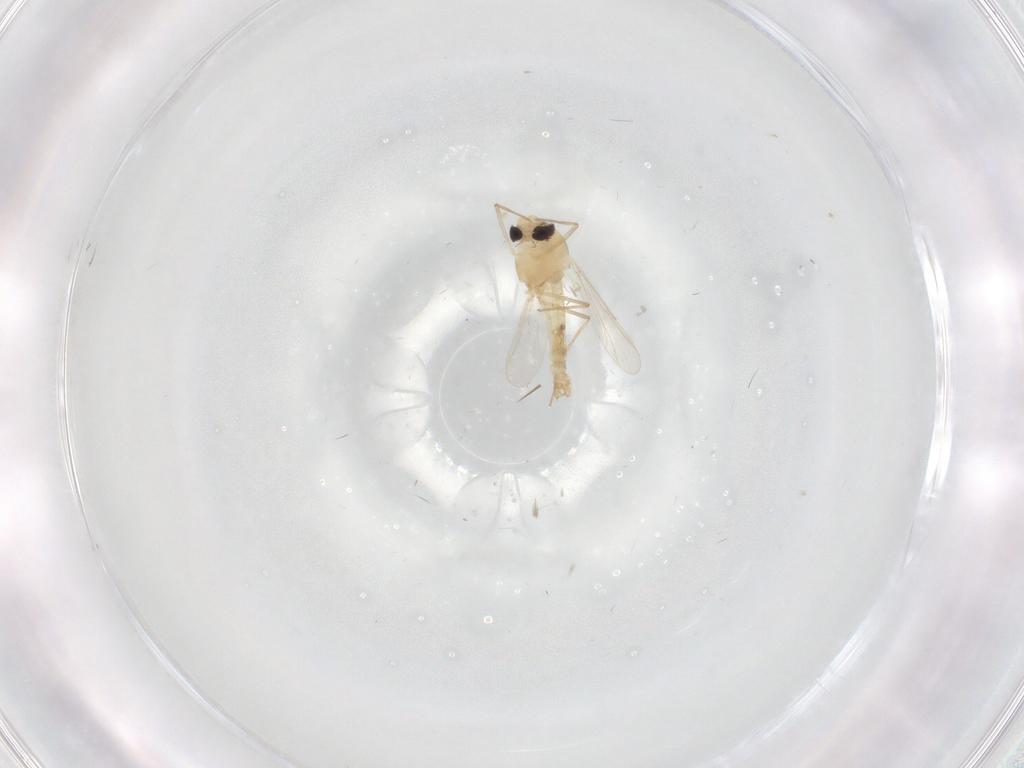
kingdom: Animalia
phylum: Arthropoda
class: Insecta
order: Diptera
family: Chironomidae
